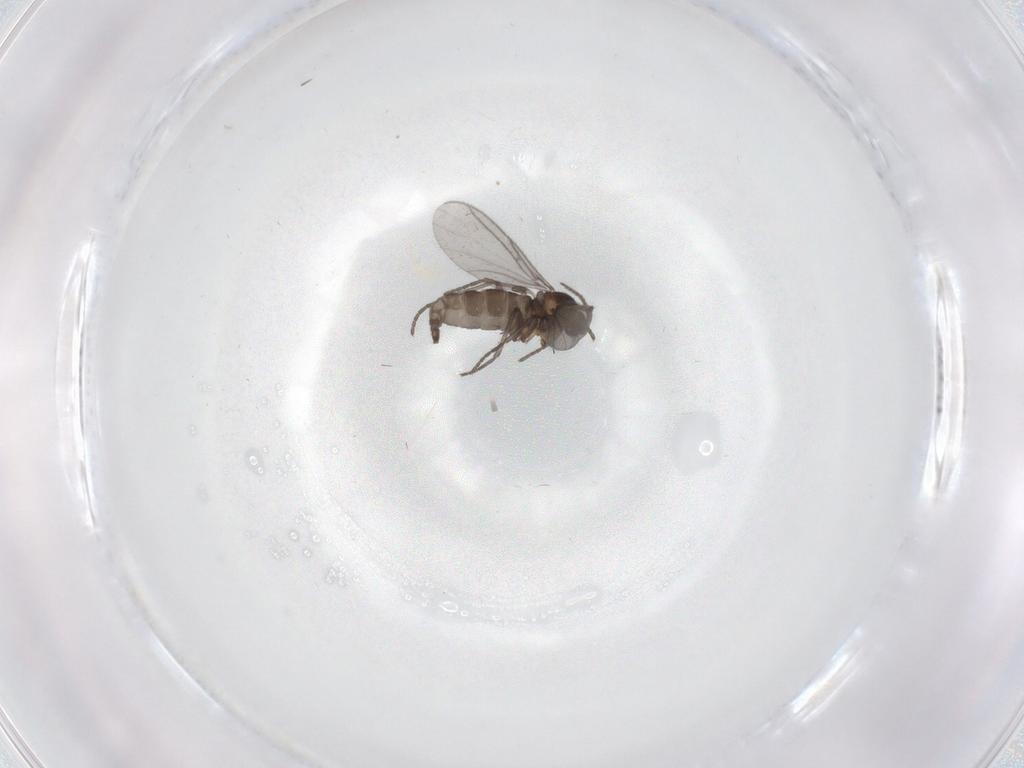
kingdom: Animalia
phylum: Arthropoda
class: Insecta
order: Diptera
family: Sciaridae
